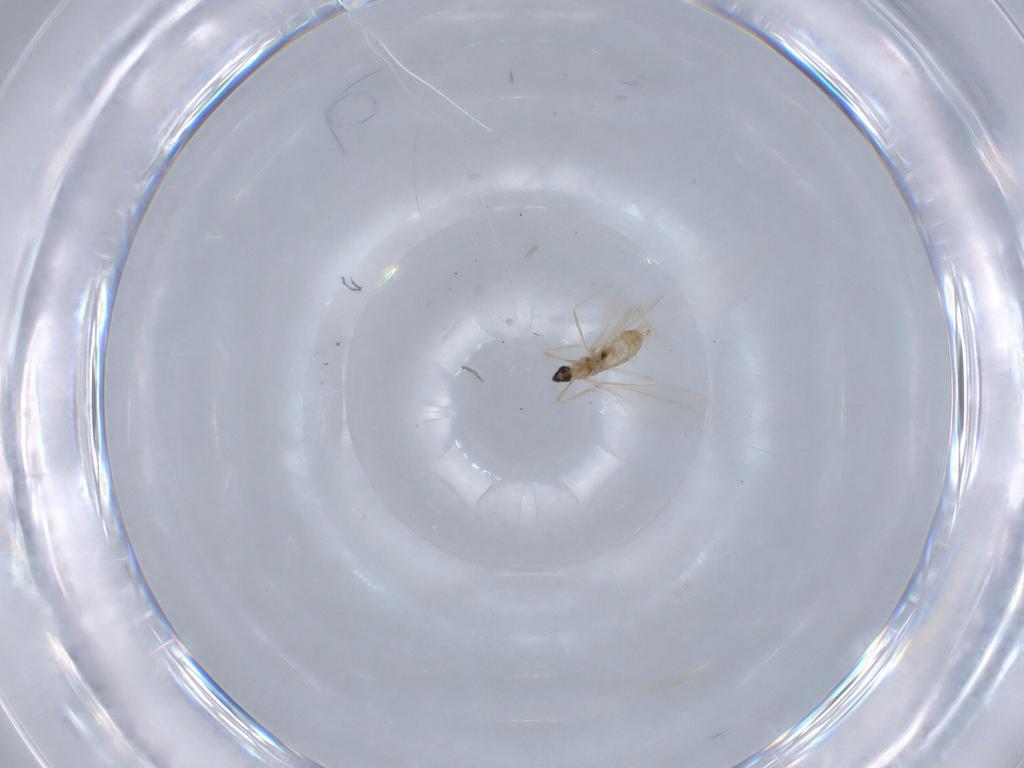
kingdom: Animalia
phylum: Arthropoda
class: Insecta
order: Diptera
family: Cecidomyiidae
